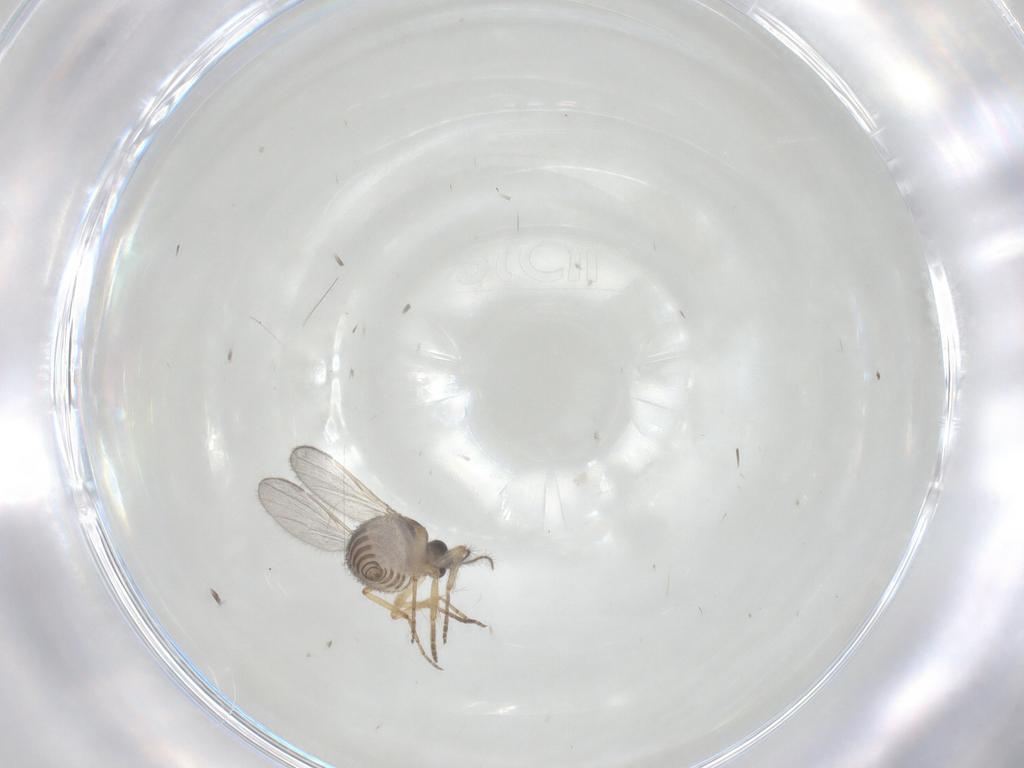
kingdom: Animalia
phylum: Arthropoda
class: Insecta
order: Diptera
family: Ceratopogonidae
